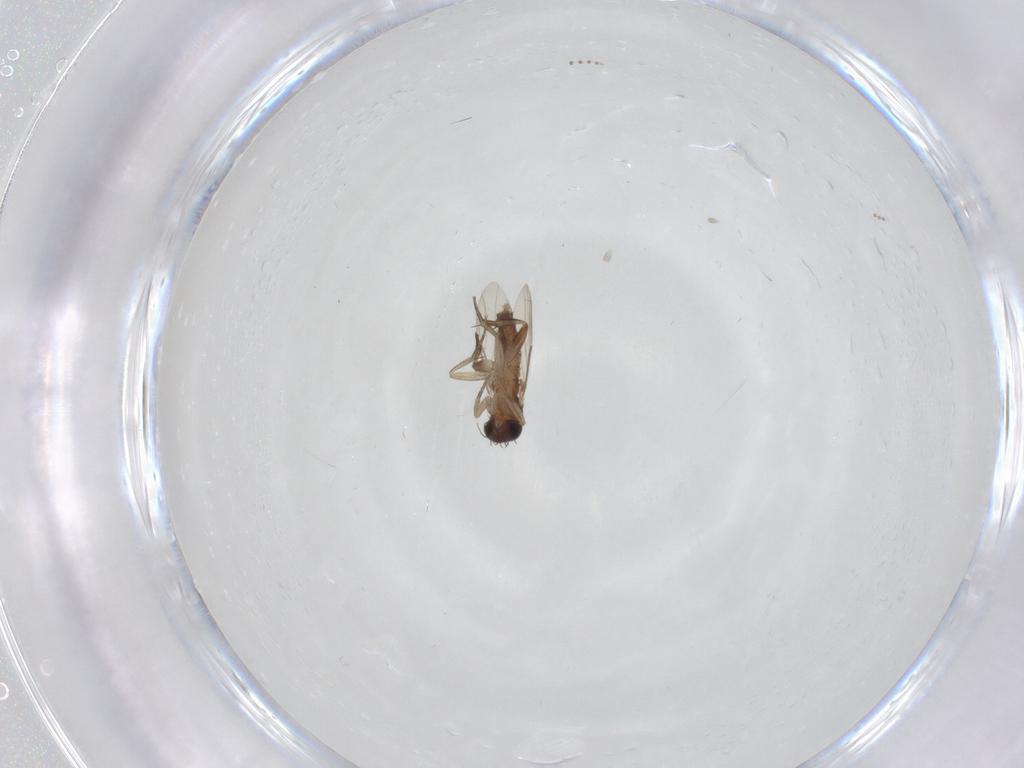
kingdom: Animalia
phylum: Arthropoda
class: Insecta
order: Diptera
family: Phoridae
